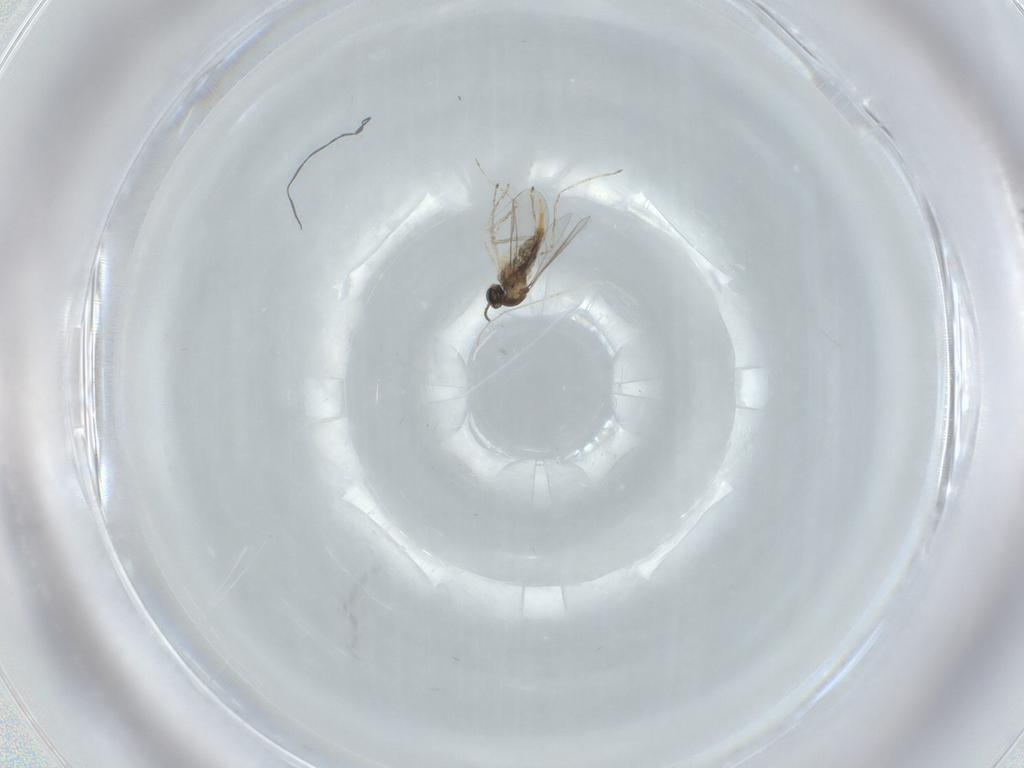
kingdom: Animalia
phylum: Arthropoda
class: Insecta
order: Diptera
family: Cecidomyiidae
